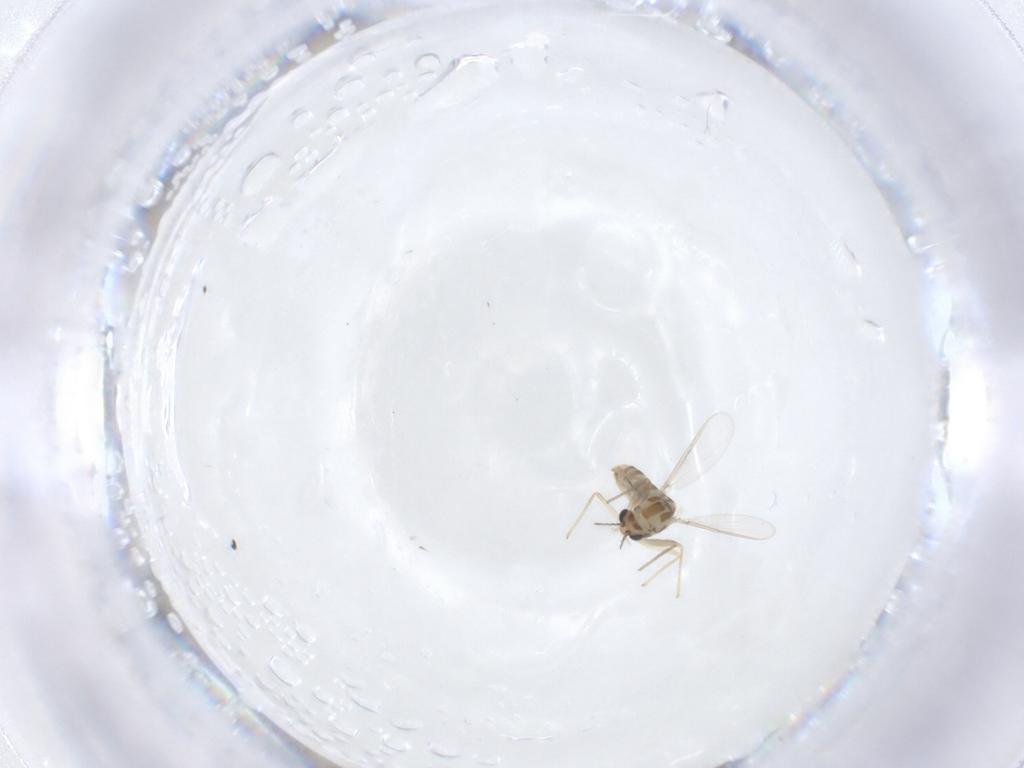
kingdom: Animalia
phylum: Arthropoda
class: Insecta
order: Diptera
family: Chironomidae
